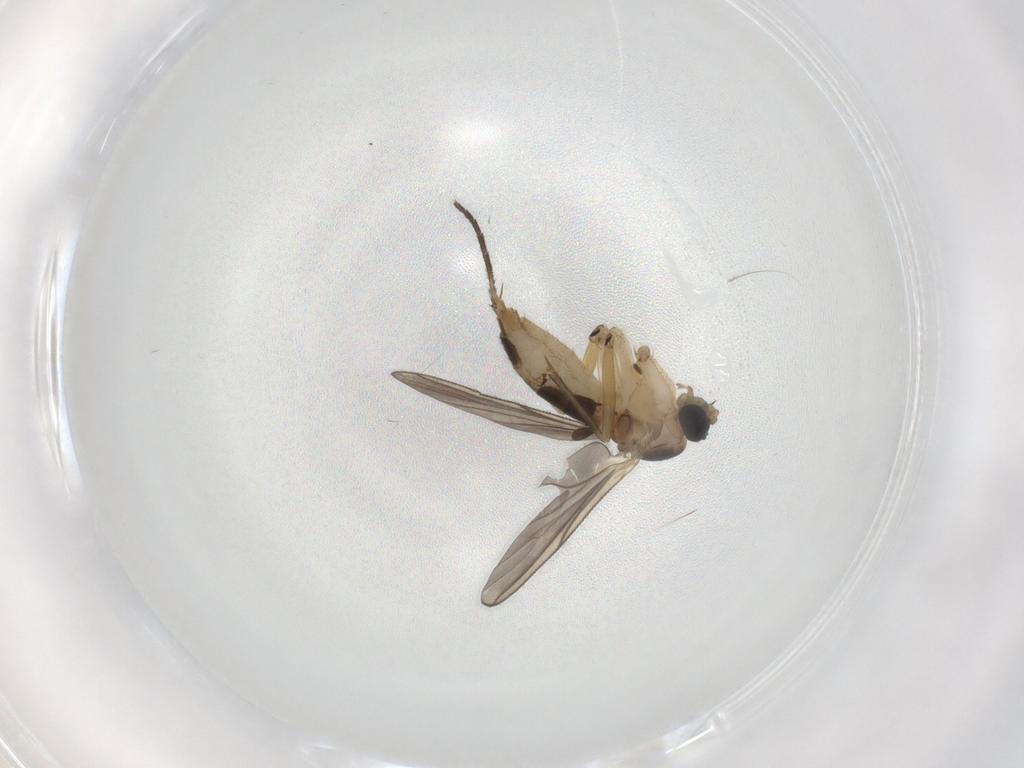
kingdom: Animalia
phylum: Arthropoda
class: Insecta
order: Diptera
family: Sciaridae
